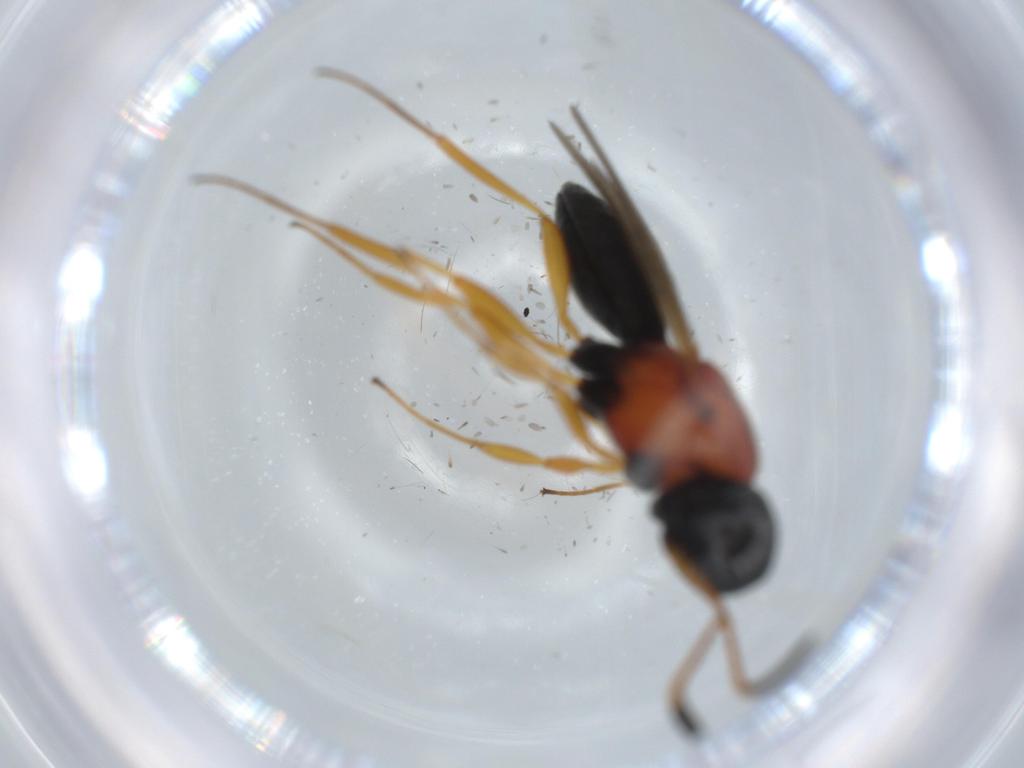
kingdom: Animalia
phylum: Arthropoda
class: Insecta
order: Hymenoptera
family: Scelionidae
